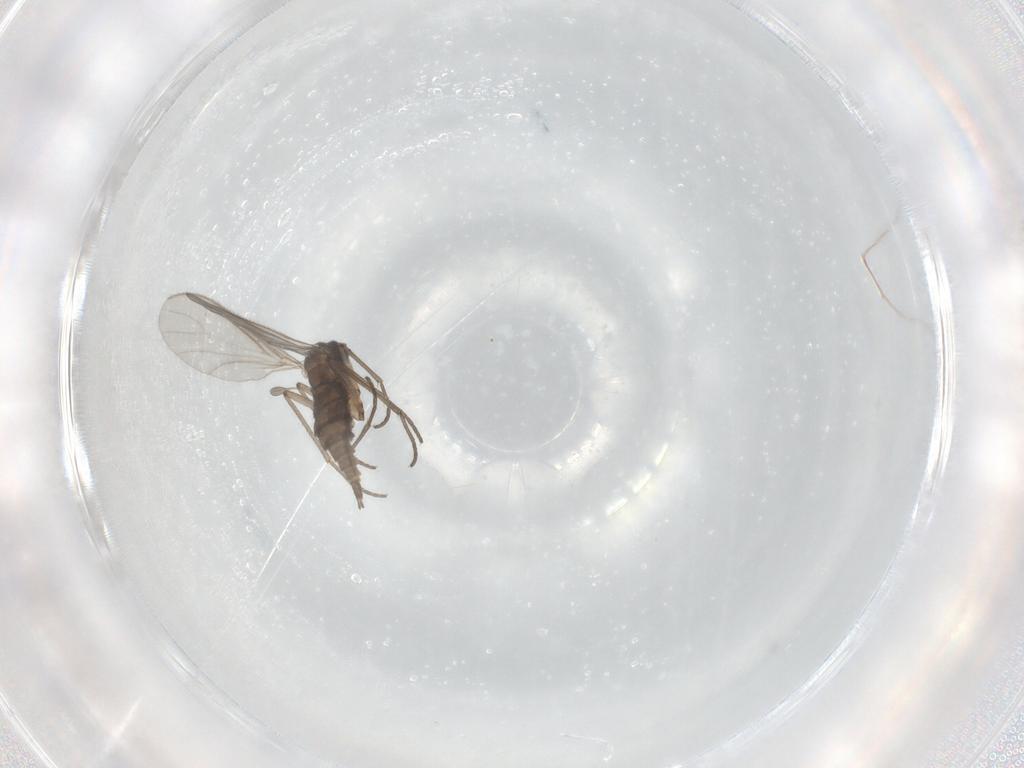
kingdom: Animalia
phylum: Arthropoda
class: Insecta
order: Diptera
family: Sciaridae
